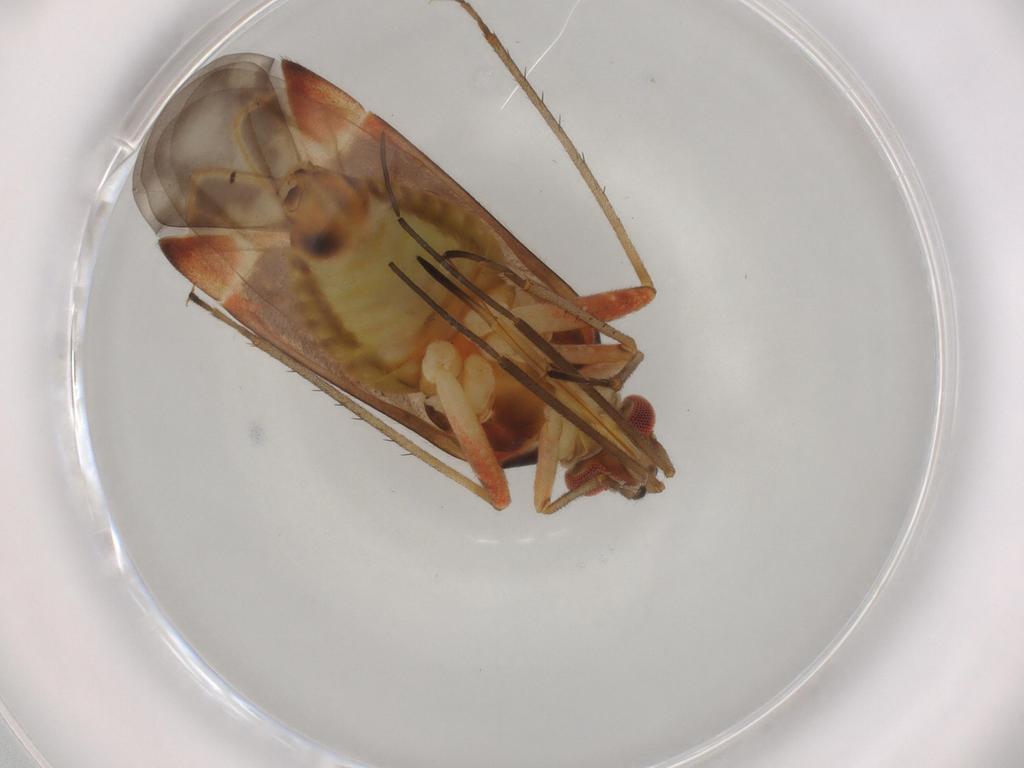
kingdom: Animalia
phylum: Arthropoda
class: Insecta
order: Hemiptera
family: Miridae
